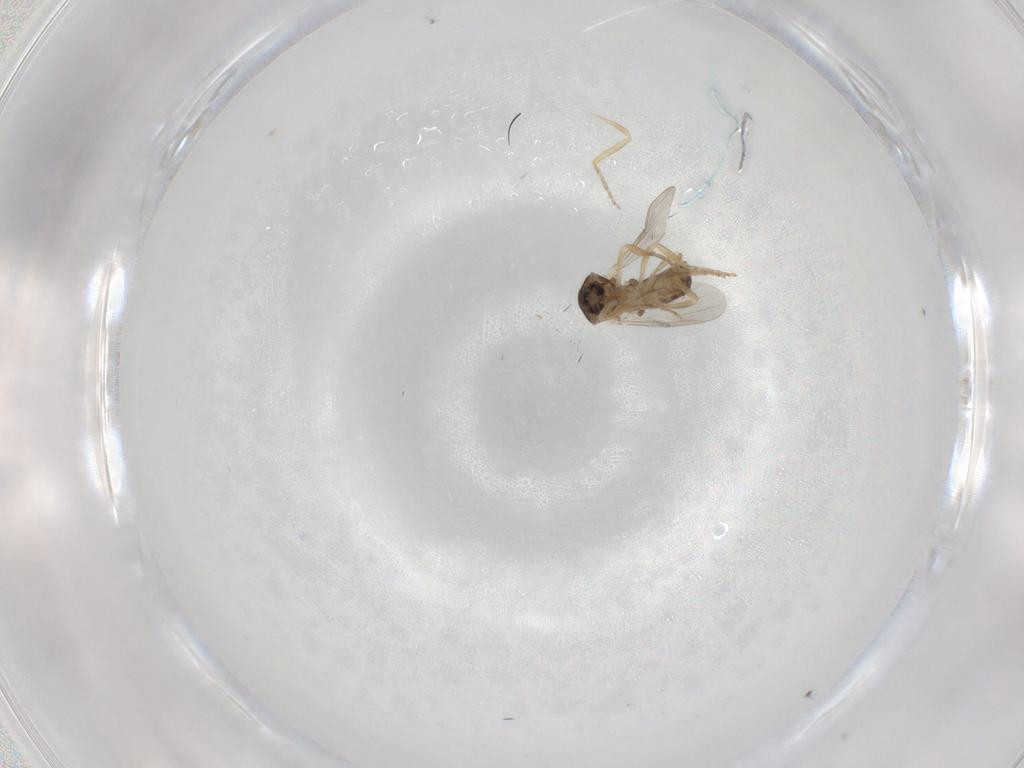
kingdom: Animalia
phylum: Arthropoda
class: Insecta
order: Diptera
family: Ceratopogonidae
